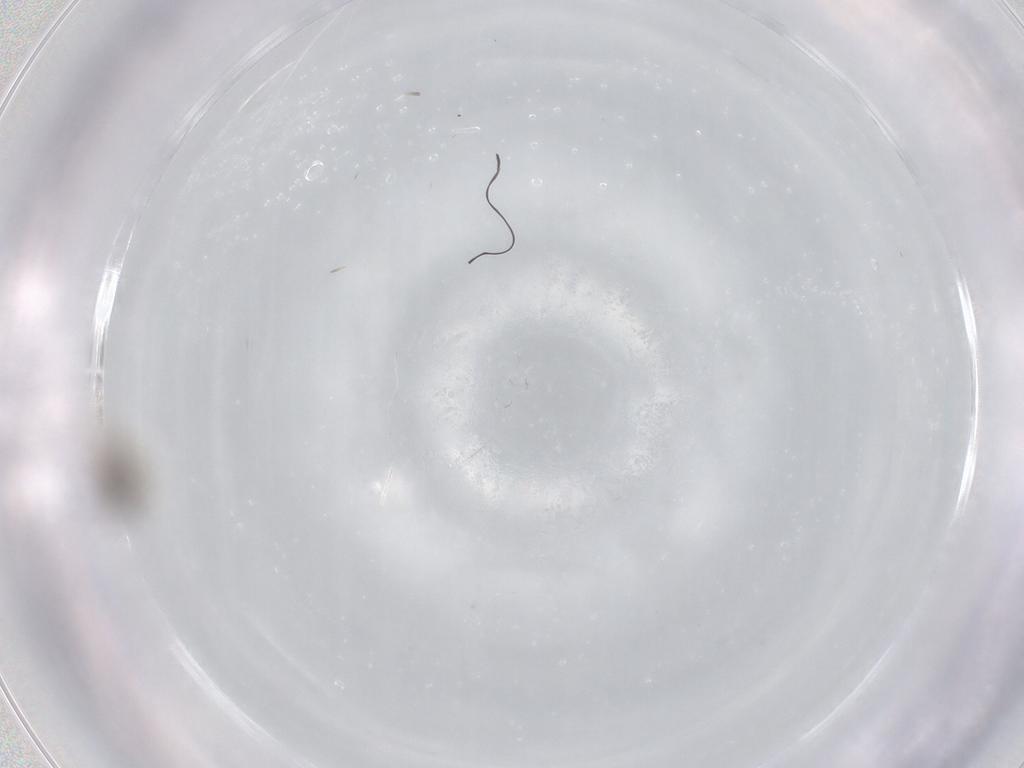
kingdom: Animalia
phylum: Arthropoda
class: Insecta
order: Diptera
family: Cecidomyiidae
